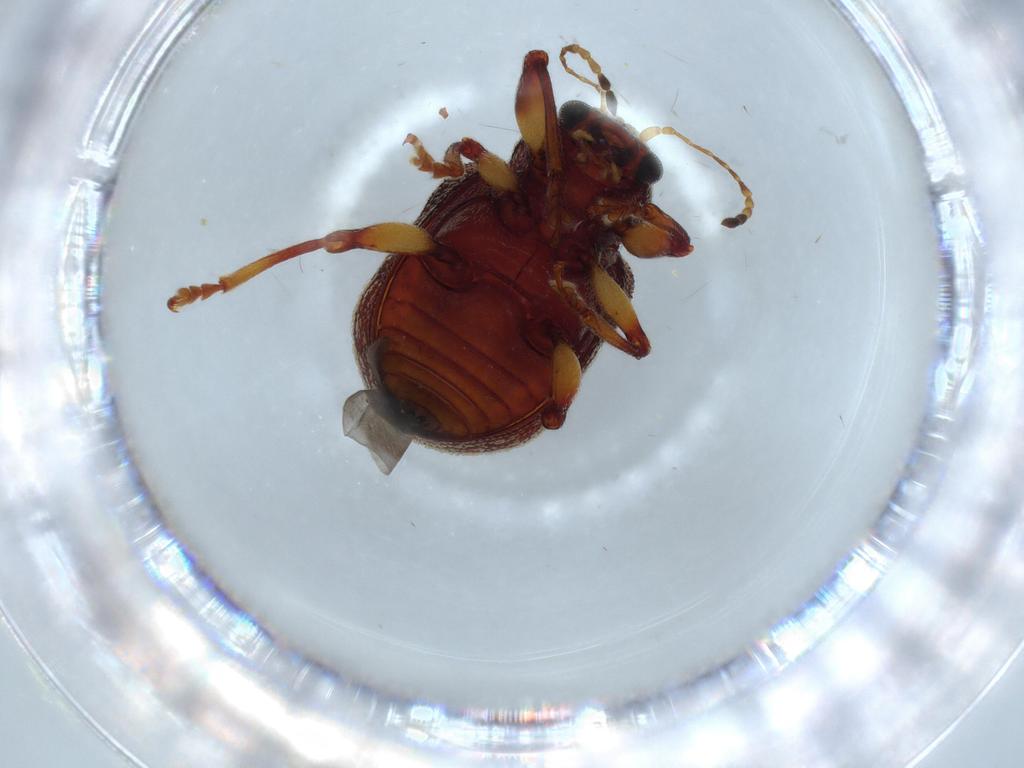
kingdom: Animalia
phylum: Arthropoda
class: Insecta
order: Coleoptera
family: Chrysomelidae
